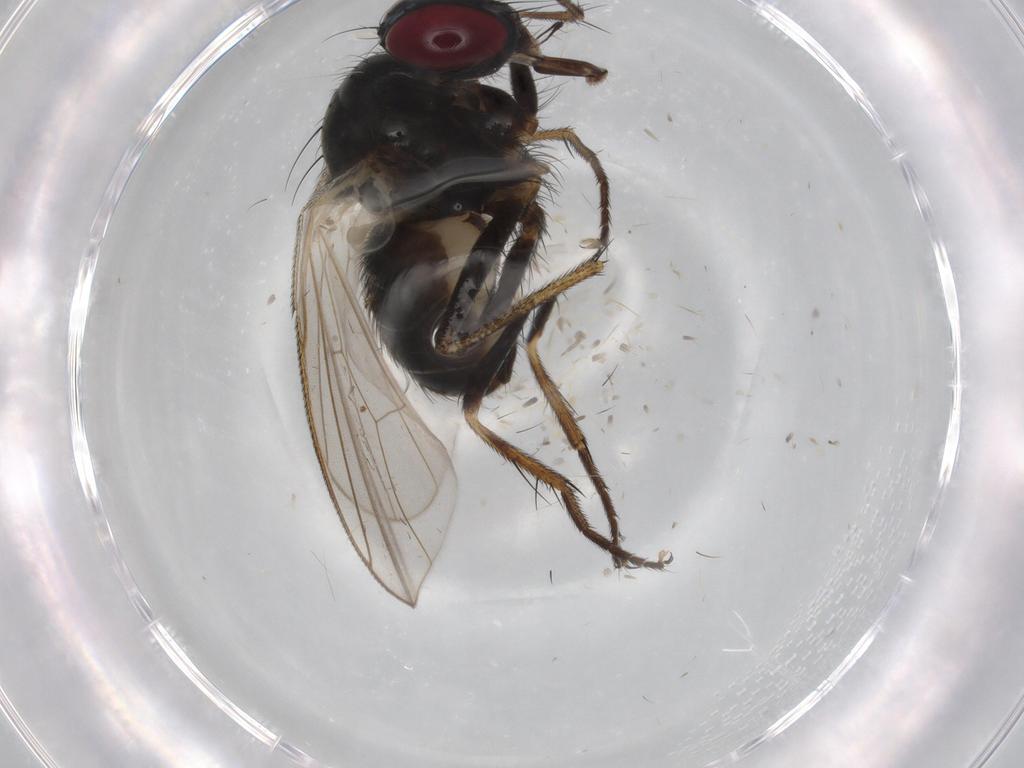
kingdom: Animalia
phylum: Arthropoda
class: Insecta
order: Diptera
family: Muscidae
